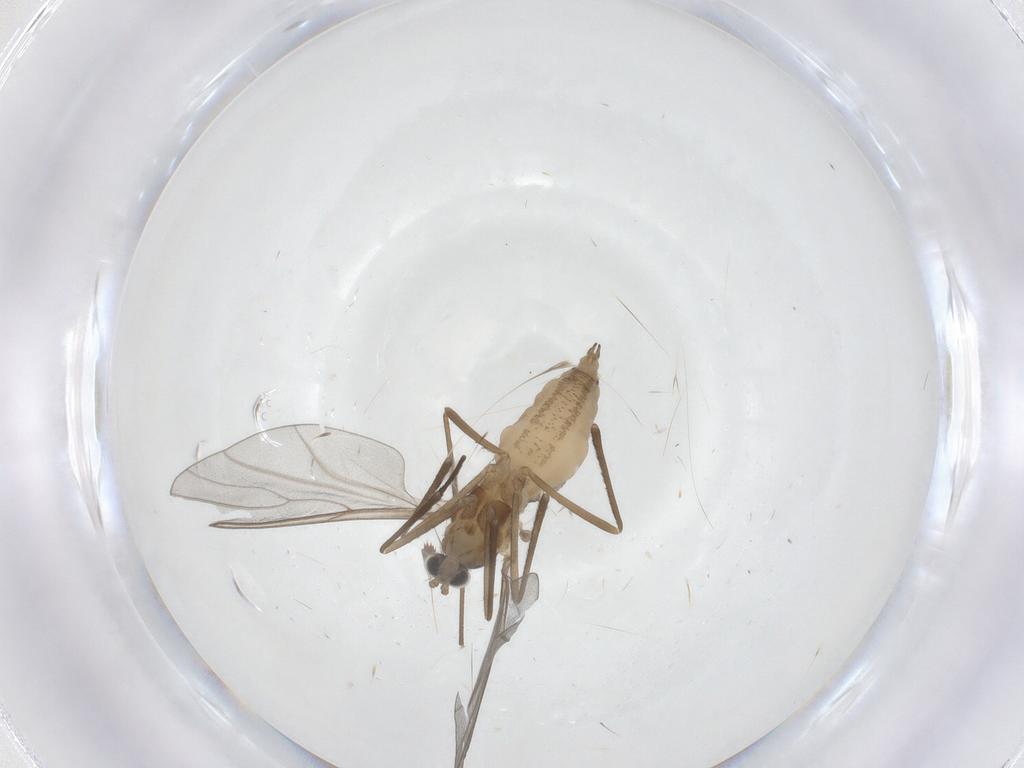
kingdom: Animalia
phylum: Arthropoda
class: Insecta
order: Diptera
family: Cecidomyiidae
